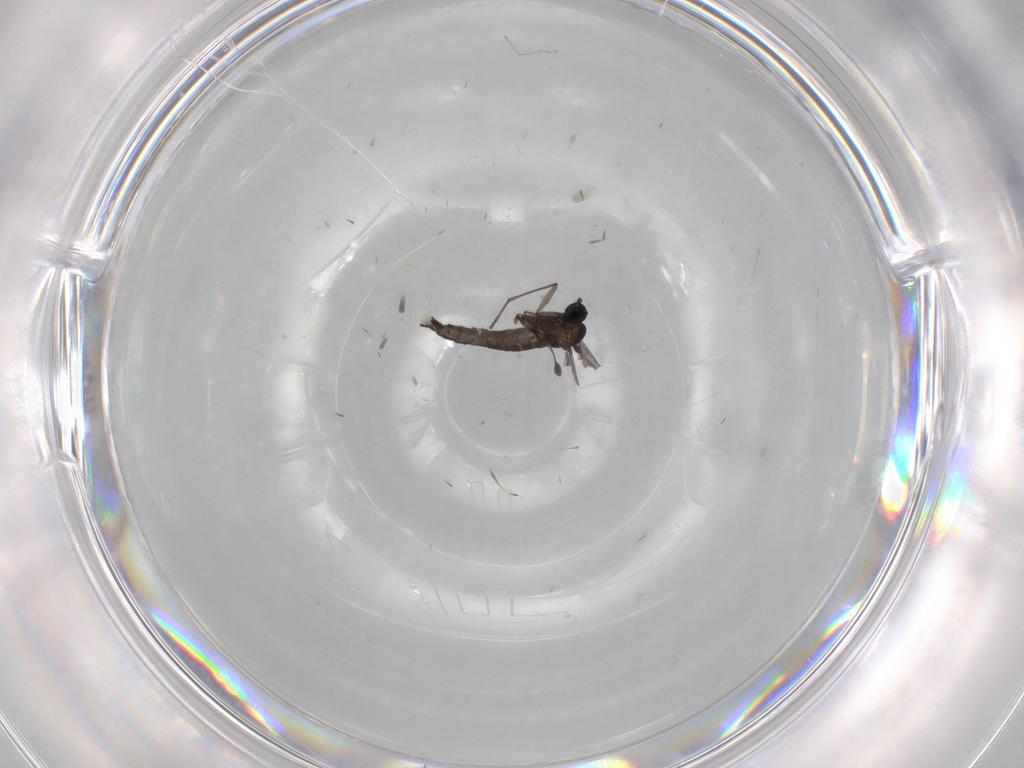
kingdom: Animalia
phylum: Arthropoda
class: Insecta
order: Diptera
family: Sciaridae
